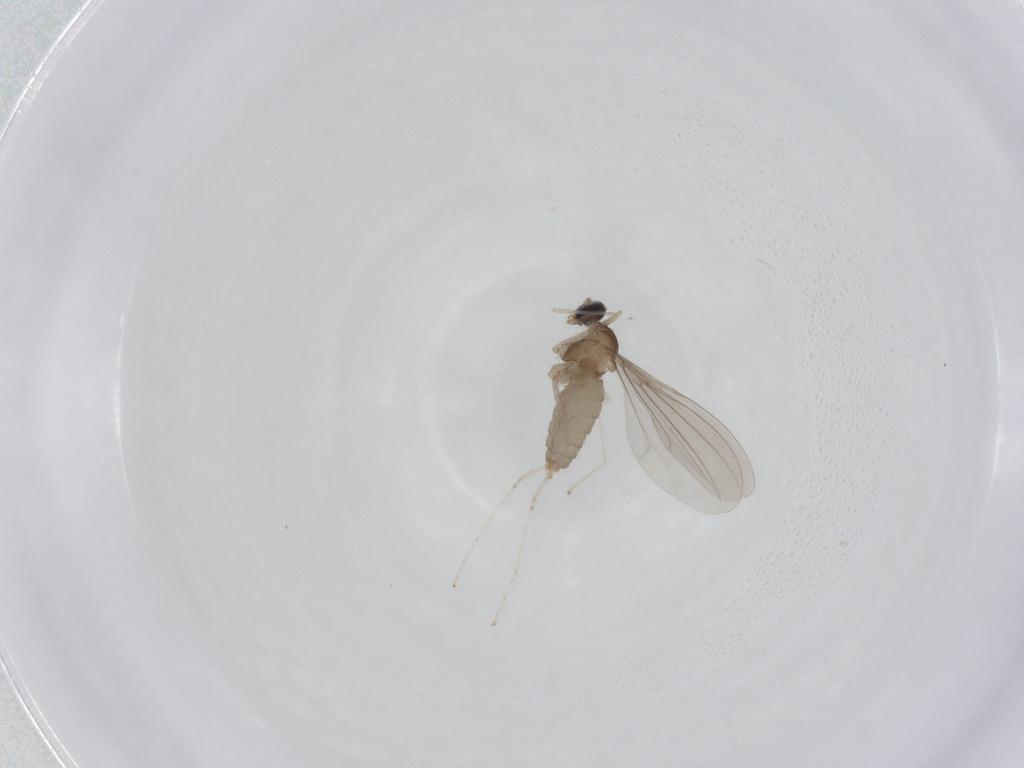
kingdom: Animalia
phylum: Arthropoda
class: Insecta
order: Diptera
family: Cecidomyiidae
